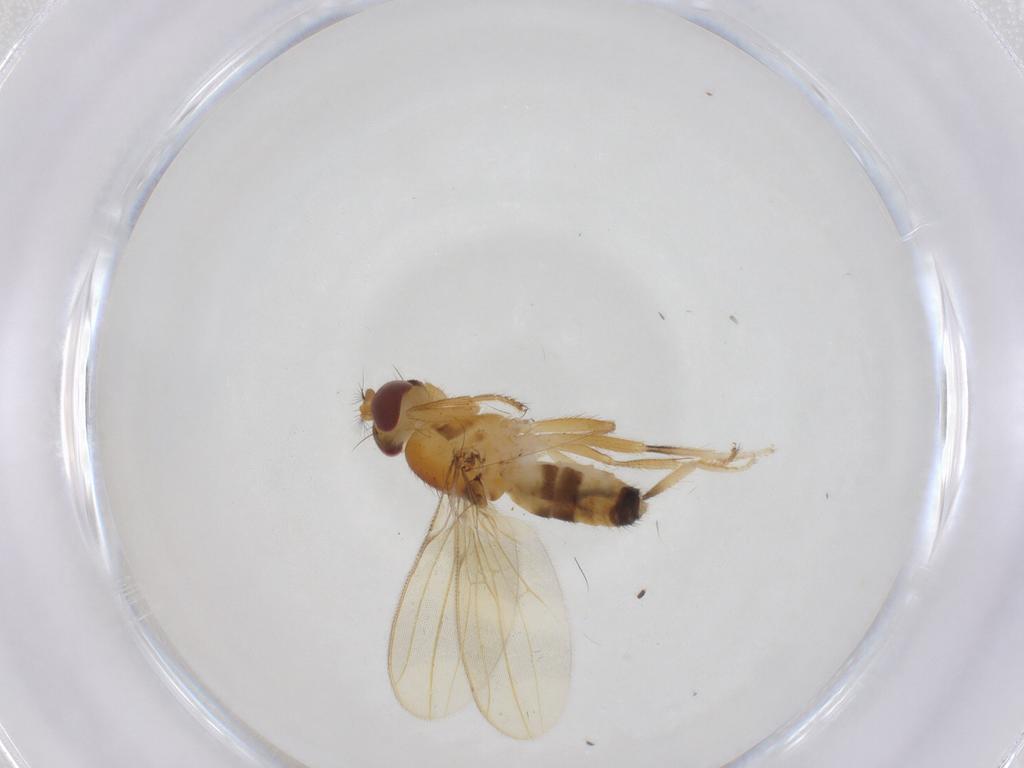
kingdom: Animalia
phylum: Arthropoda
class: Insecta
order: Diptera
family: Periscelididae
